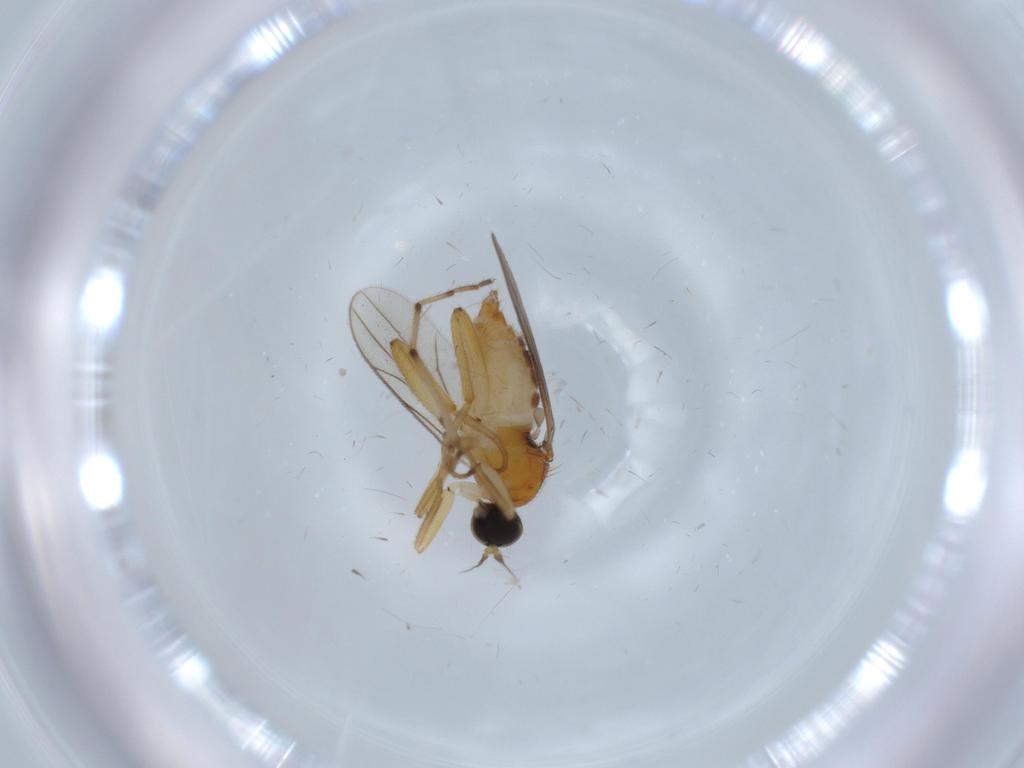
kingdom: Animalia
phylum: Arthropoda
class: Insecta
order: Diptera
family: Hybotidae
